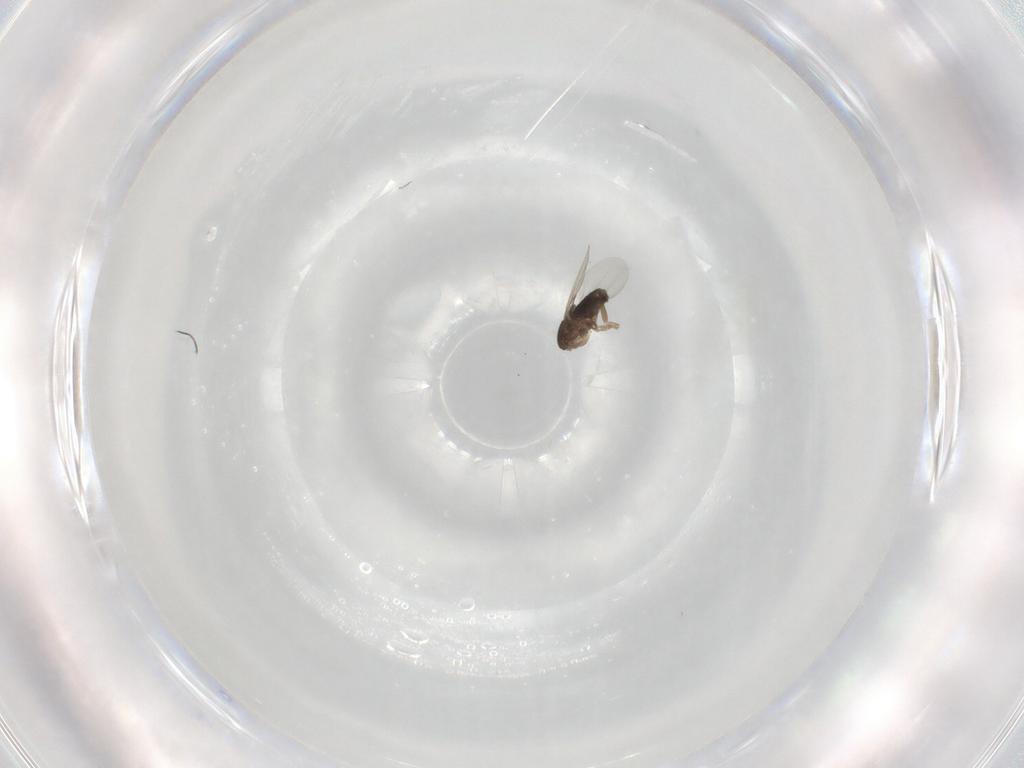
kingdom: Animalia
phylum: Arthropoda
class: Insecta
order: Diptera
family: Phoridae
